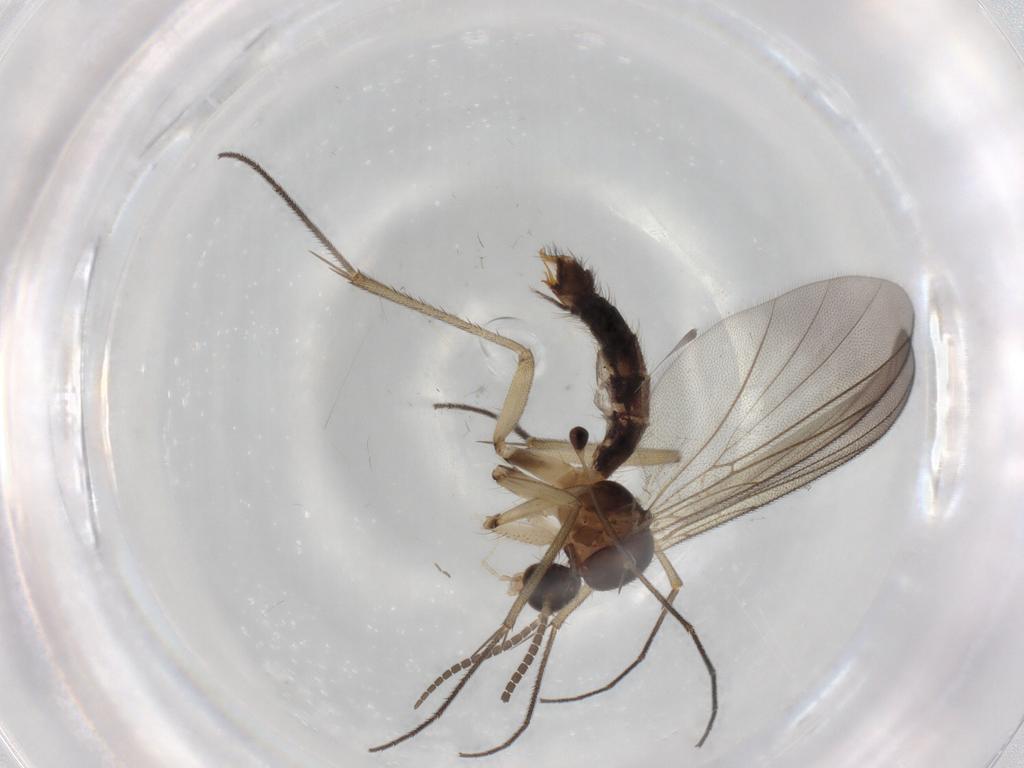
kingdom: Animalia
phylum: Arthropoda
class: Insecta
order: Diptera
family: Mycetophilidae
